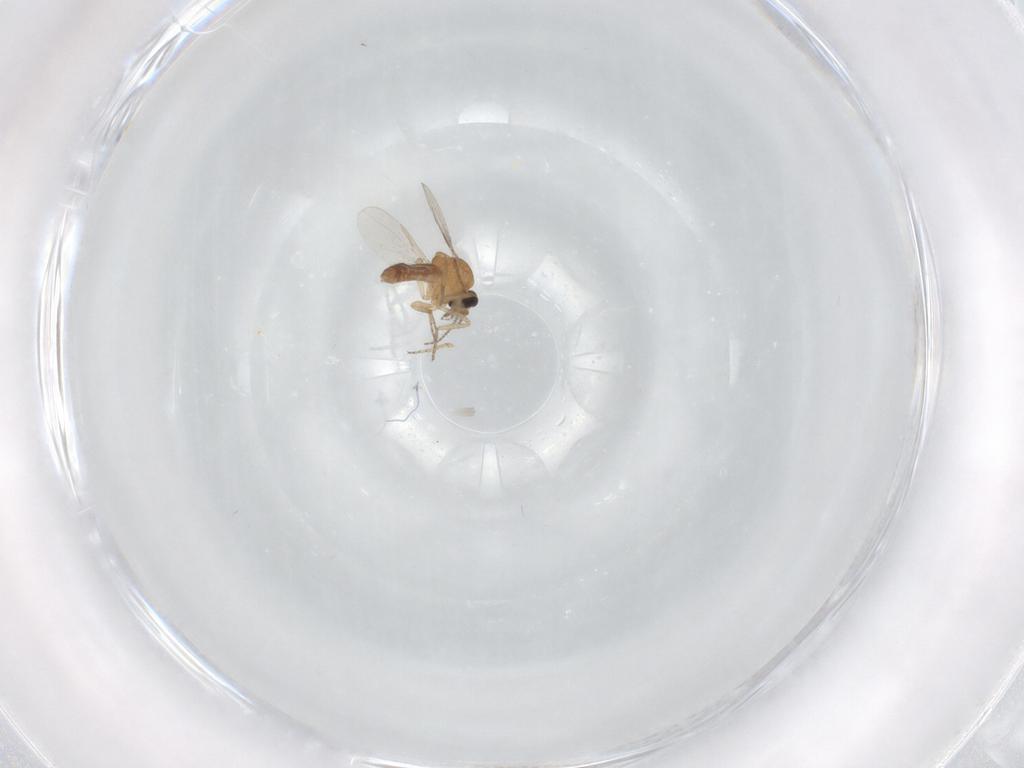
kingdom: Animalia
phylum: Arthropoda
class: Insecta
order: Diptera
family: Ceratopogonidae
